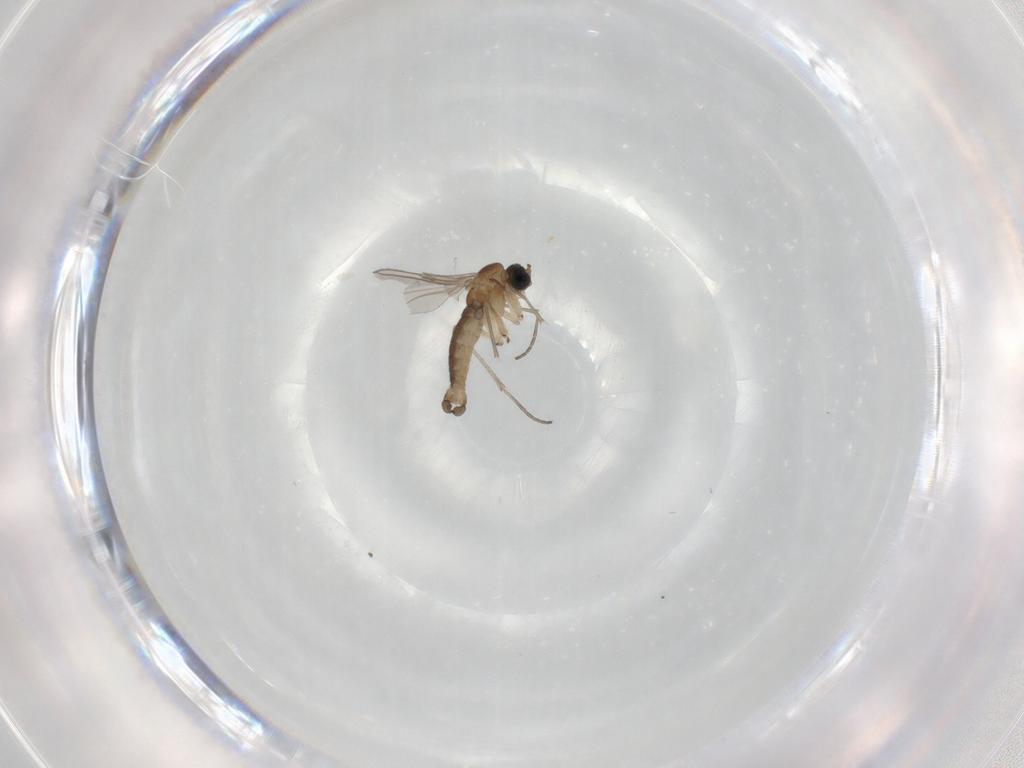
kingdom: Animalia
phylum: Arthropoda
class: Insecta
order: Diptera
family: Sciaridae
